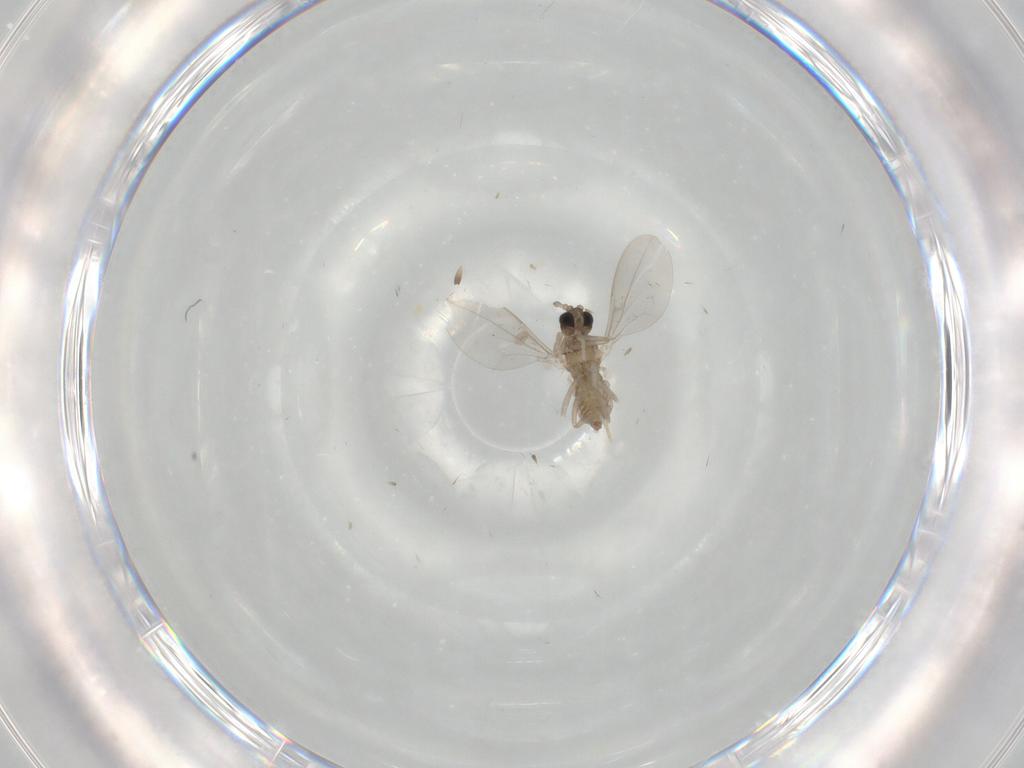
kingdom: Animalia
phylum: Arthropoda
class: Insecta
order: Diptera
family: Cecidomyiidae
